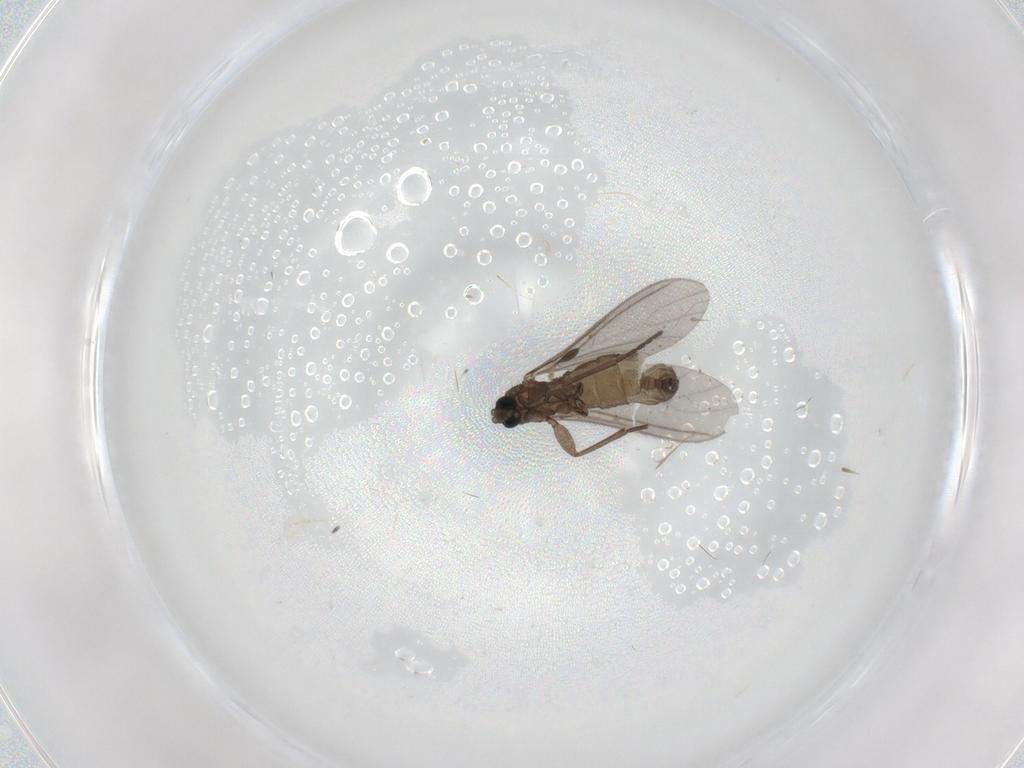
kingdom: Animalia
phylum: Arthropoda
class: Insecta
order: Diptera
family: Sciaridae
